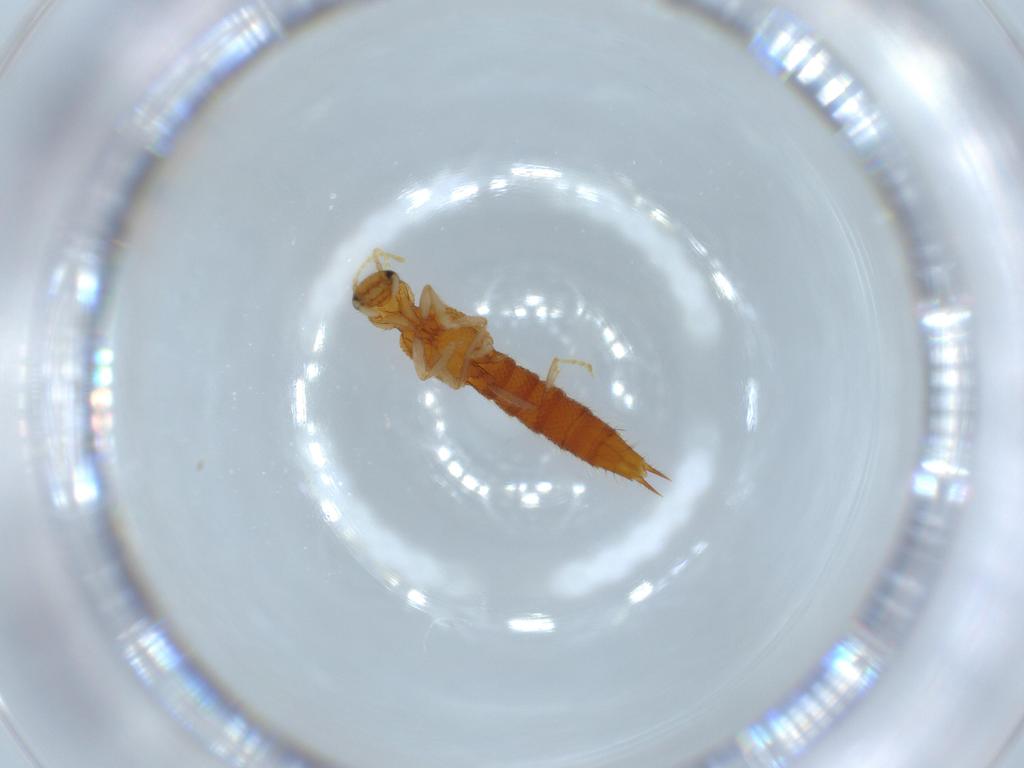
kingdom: Animalia
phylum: Arthropoda
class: Insecta
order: Coleoptera
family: Staphylinidae
